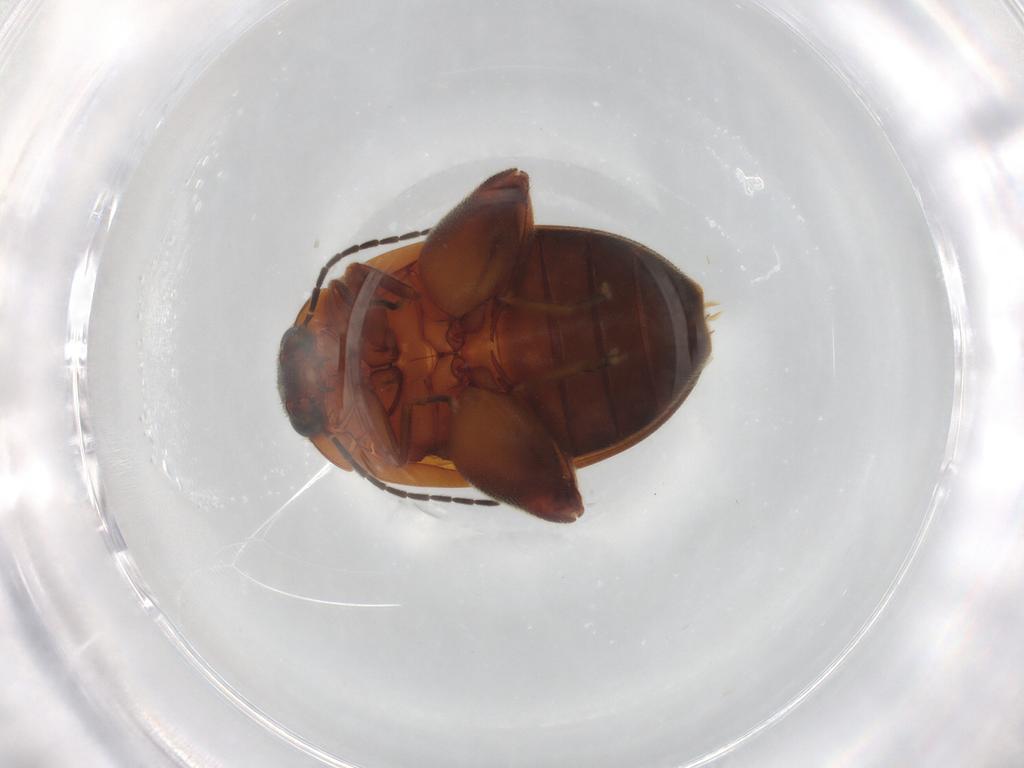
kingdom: Animalia
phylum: Arthropoda
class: Insecta
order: Coleoptera
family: Scirtidae
